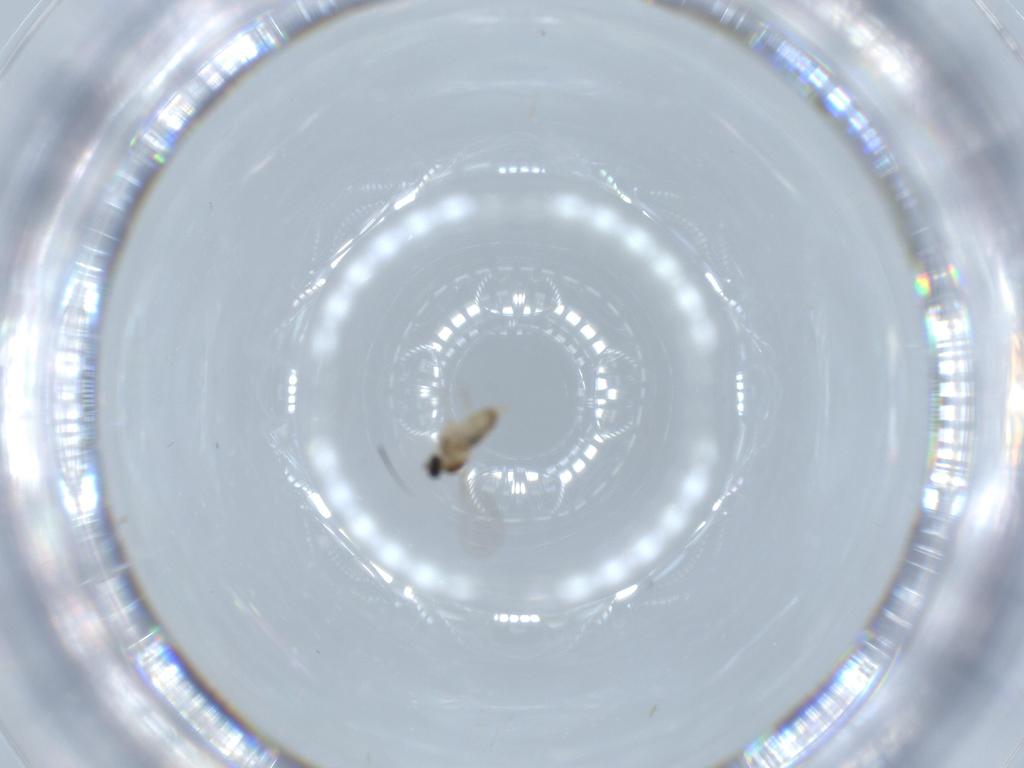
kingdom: Animalia
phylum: Arthropoda
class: Insecta
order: Diptera
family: Cecidomyiidae
